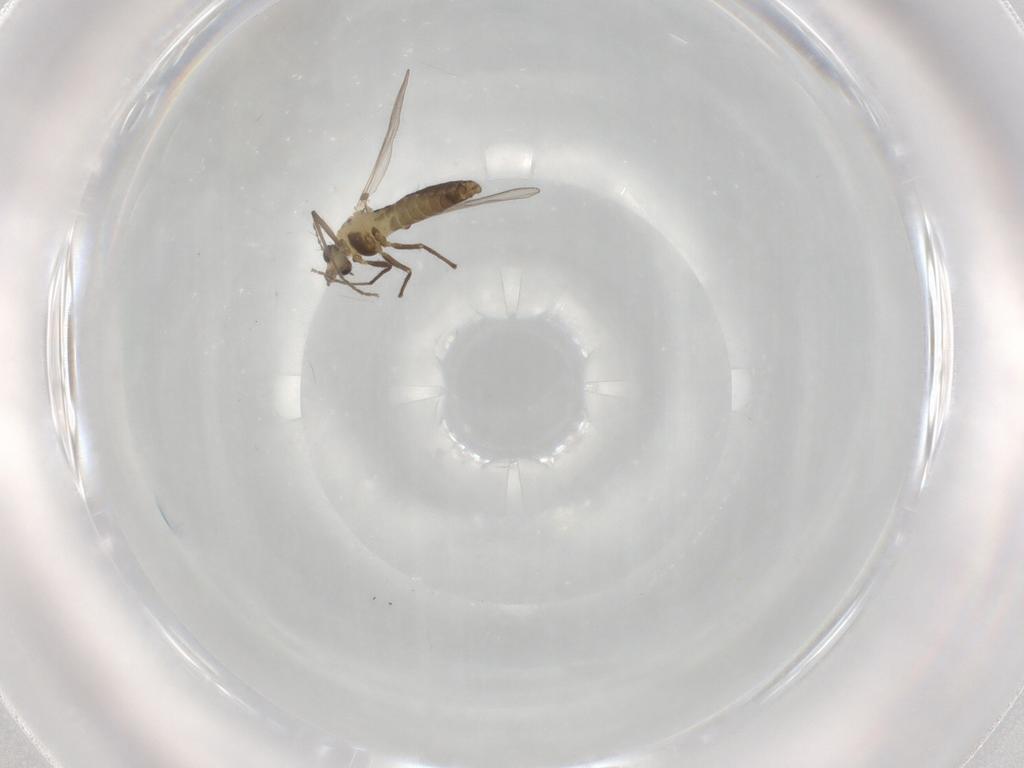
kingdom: Animalia
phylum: Arthropoda
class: Insecta
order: Diptera
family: Chironomidae
